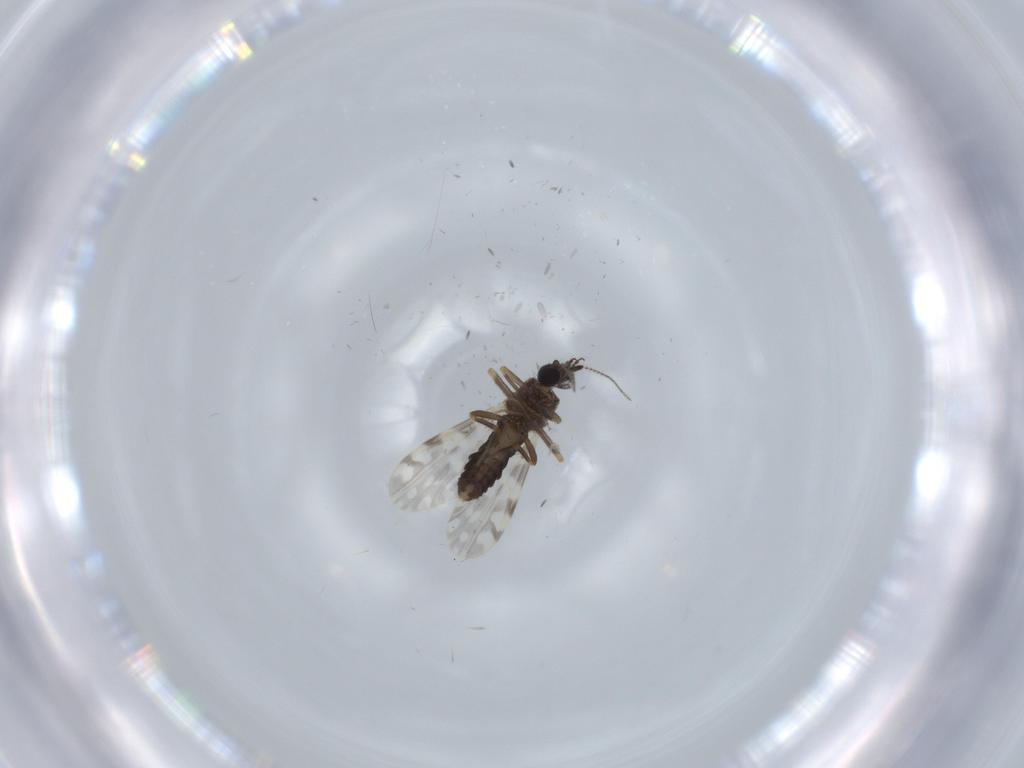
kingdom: Animalia
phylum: Arthropoda
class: Insecta
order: Diptera
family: Ceratopogonidae
